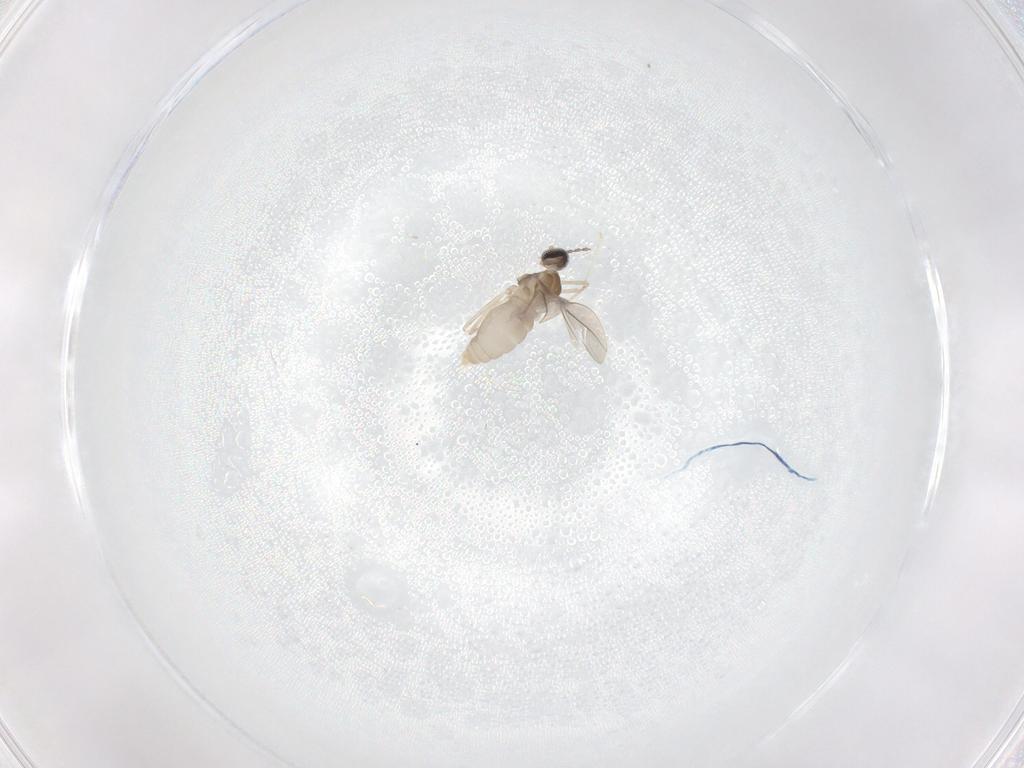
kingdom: Animalia
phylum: Arthropoda
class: Insecta
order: Diptera
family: Cecidomyiidae
